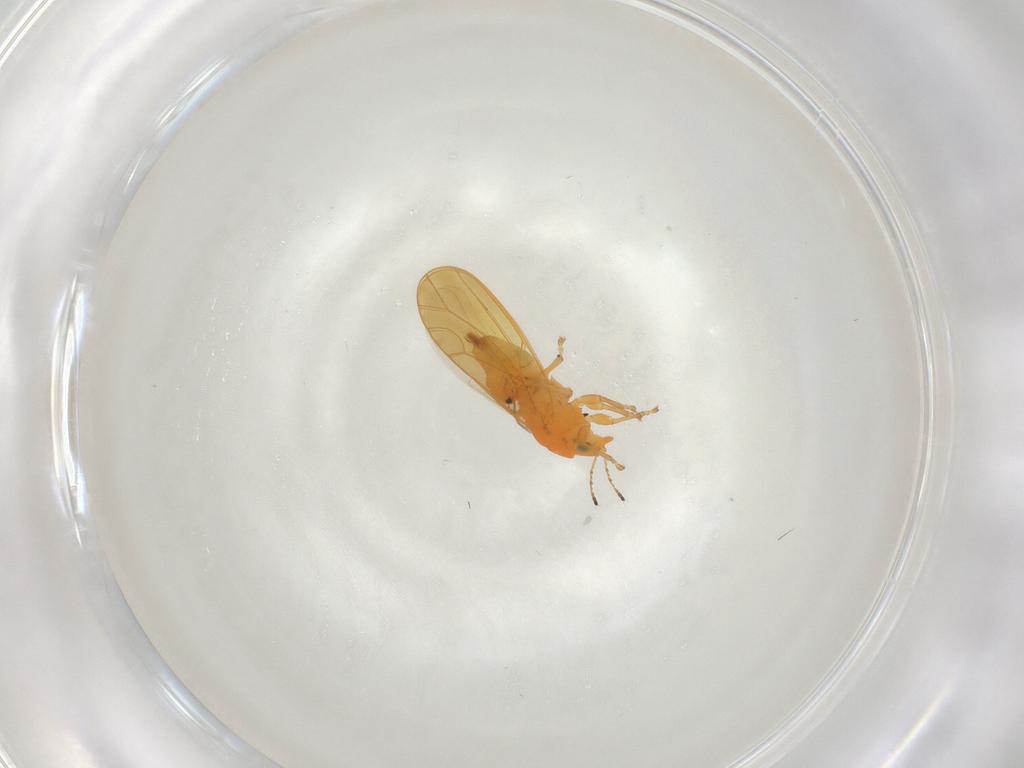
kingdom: Animalia
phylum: Arthropoda
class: Insecta
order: Hemiptera
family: Triozidae
